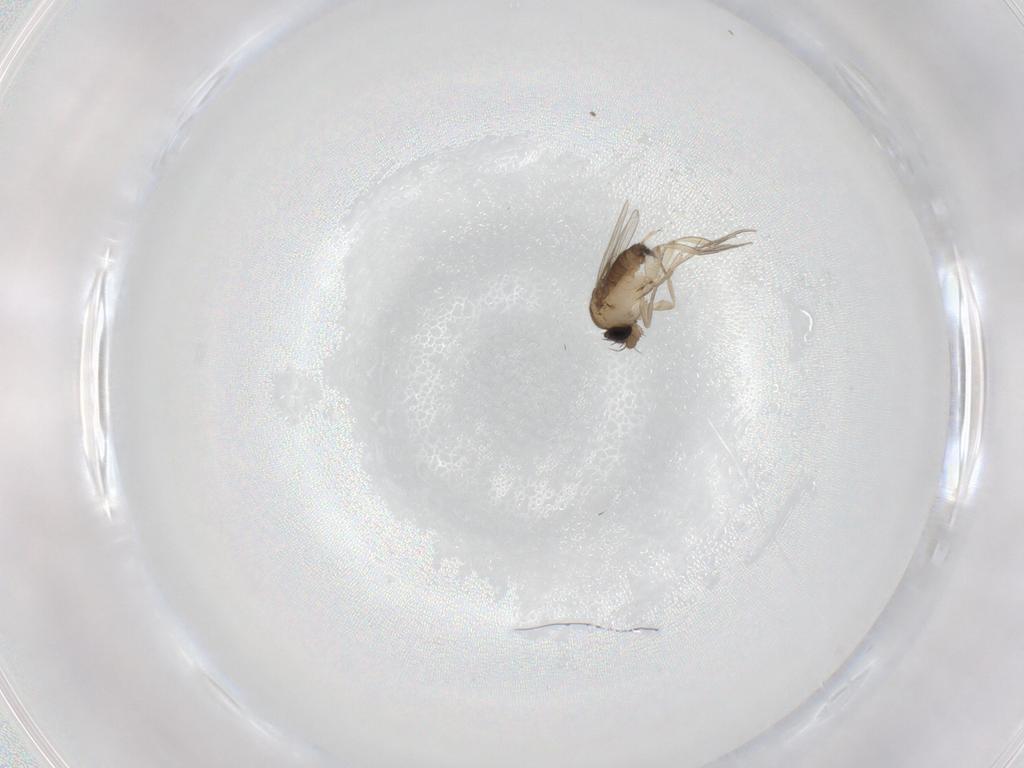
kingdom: Animalia
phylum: Arthropoda
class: Insecta
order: Diptera
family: Phoridae
